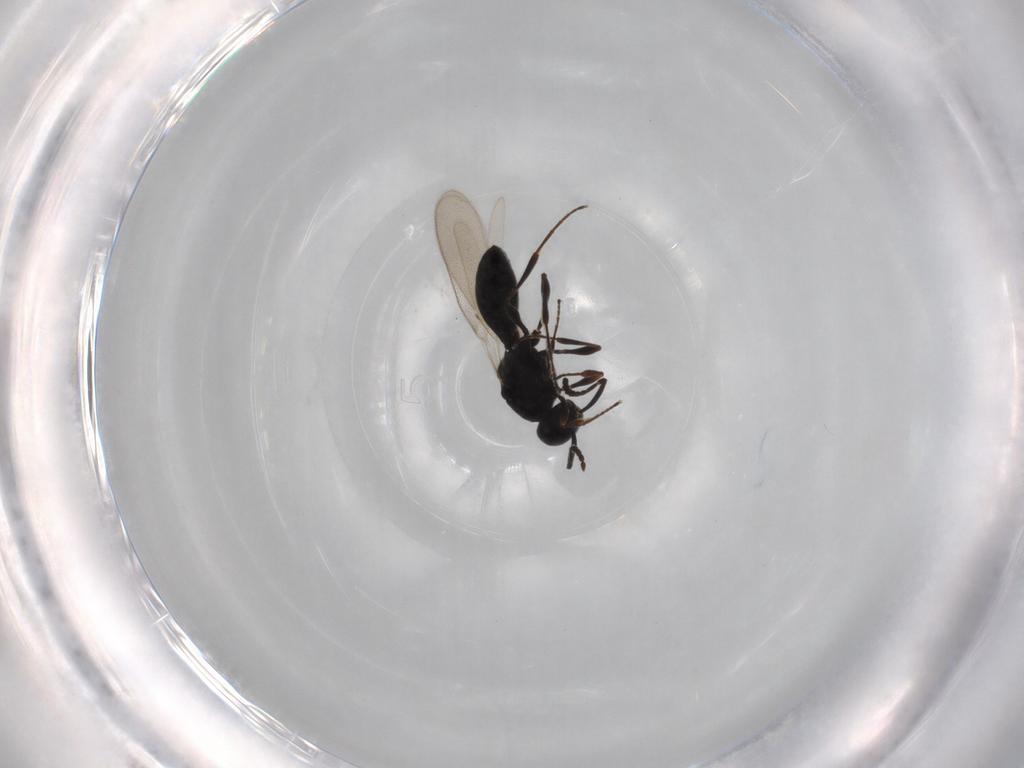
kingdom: Animalia
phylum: Arthropoda
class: Insecta
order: Diptera
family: Mythicomyiidae
